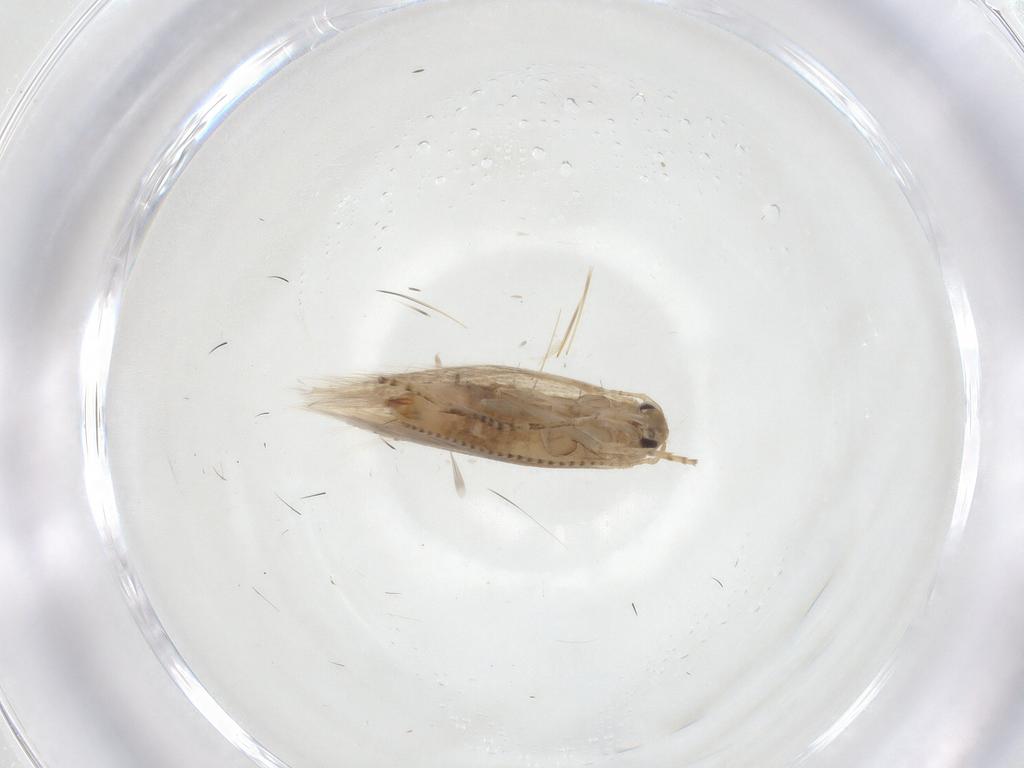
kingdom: Animalia
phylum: Arthropoda
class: Insecta
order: Lepidoptera
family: Bucculatricidae
